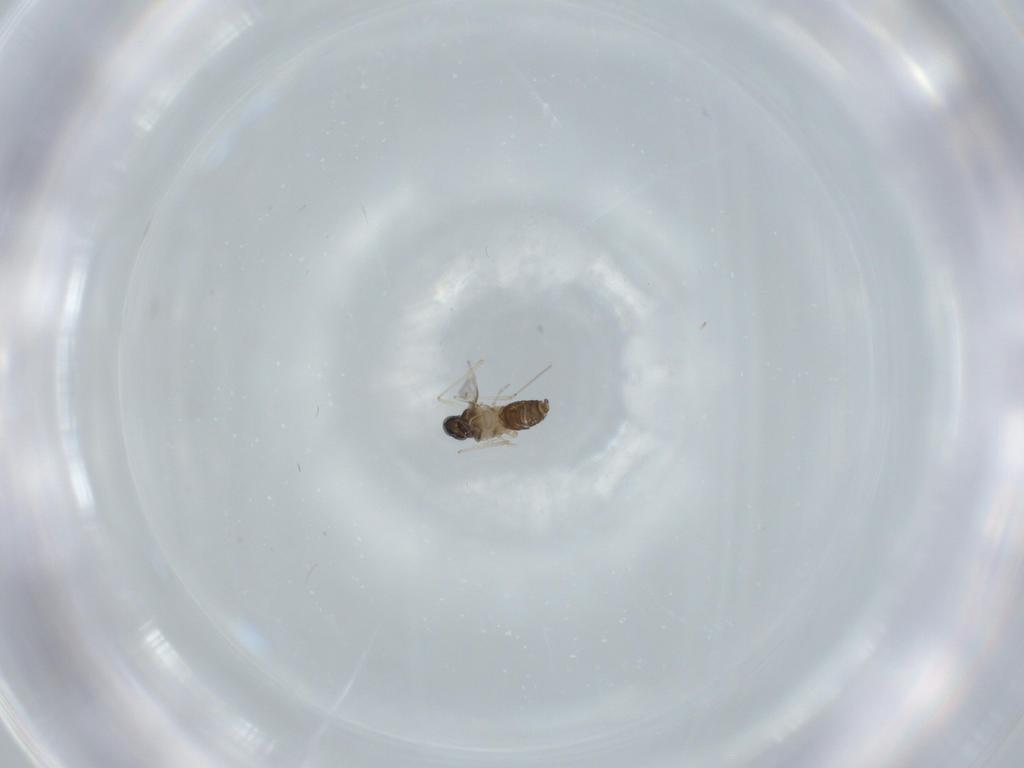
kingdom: Animalia
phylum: Arthropoda
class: Insecta
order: Diptera
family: Cecidomyiidae
